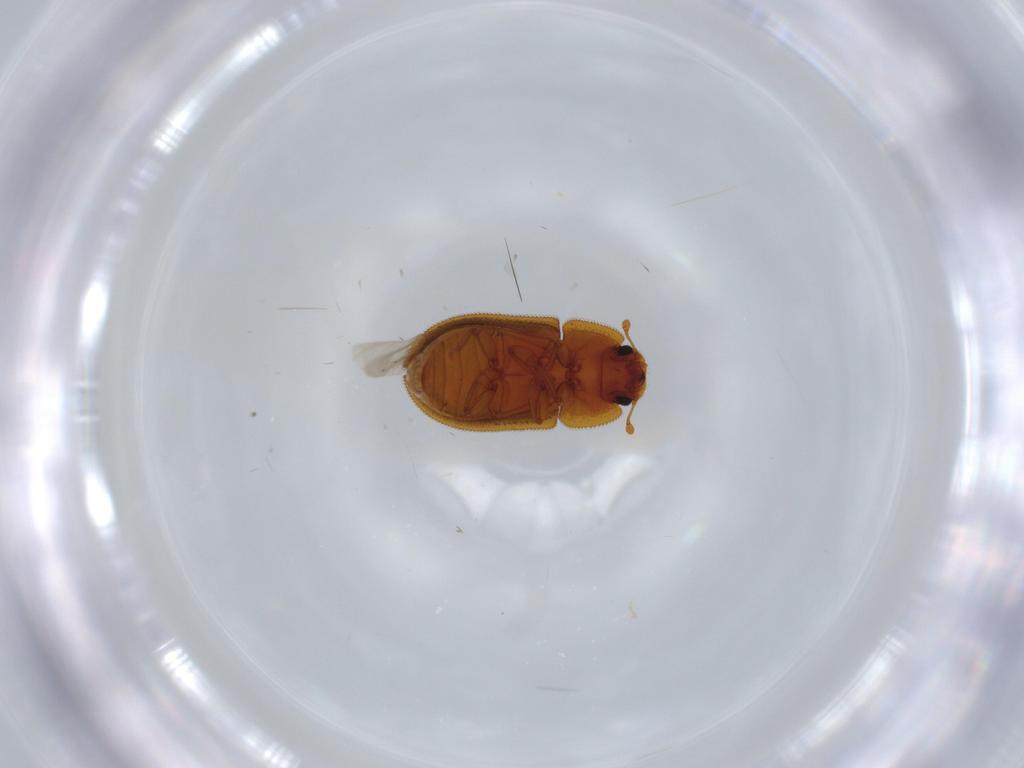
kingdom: Animalia
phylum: Arthropoda
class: Insecta
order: Coleoptera
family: Zopheridae
